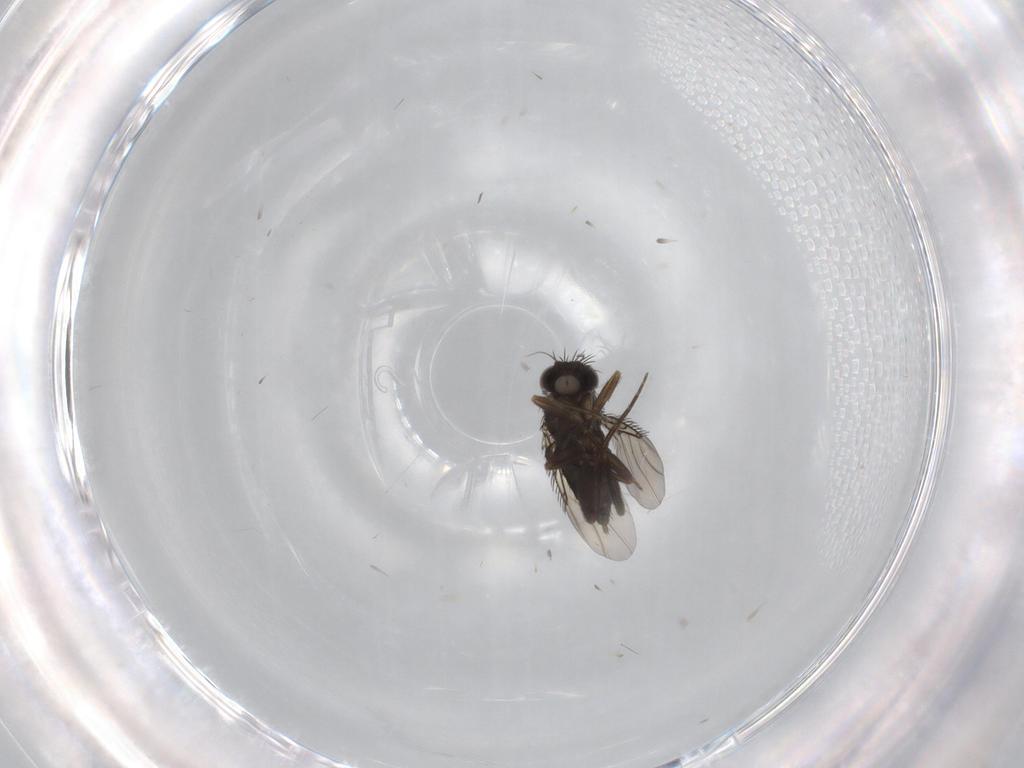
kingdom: Animalia
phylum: Arthropoda
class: Insecta
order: Diptera
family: Phoridae
